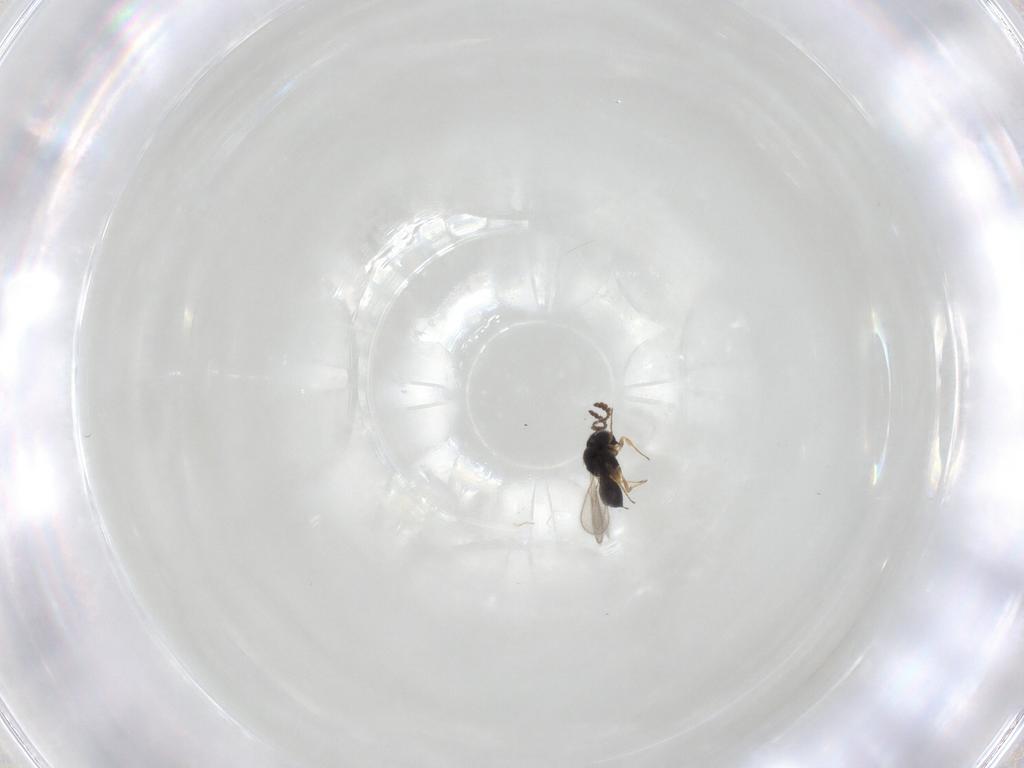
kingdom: Animalia
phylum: Arthropoda
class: Insecta
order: Hymenoptera
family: Scelionidae
